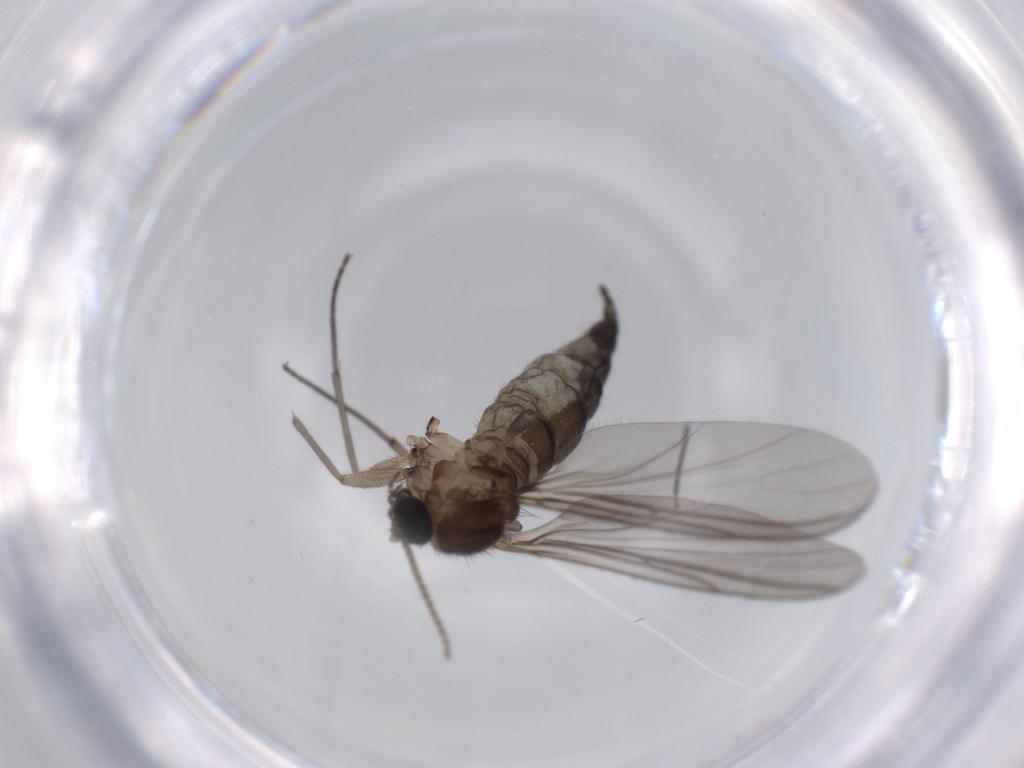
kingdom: Animalia
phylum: Arthropoda
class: Insecta
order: Diptera
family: Sciaridae
